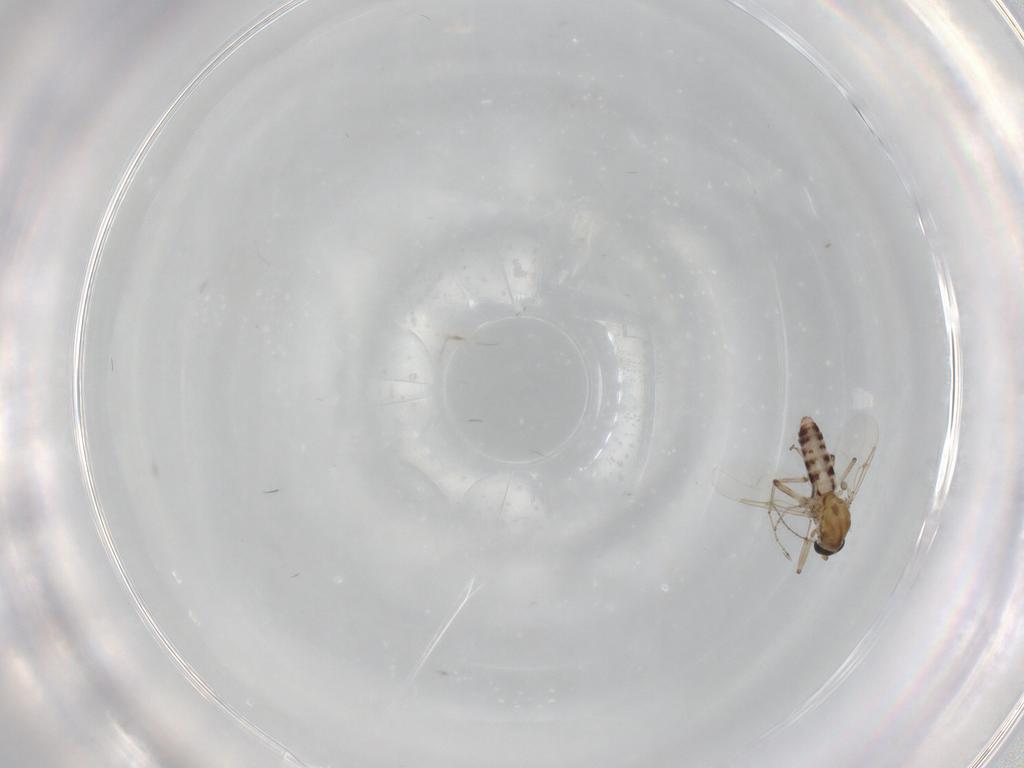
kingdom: Animalia
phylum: Arthropoda
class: Insecta
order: Diptera
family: Ceratopogonidae
